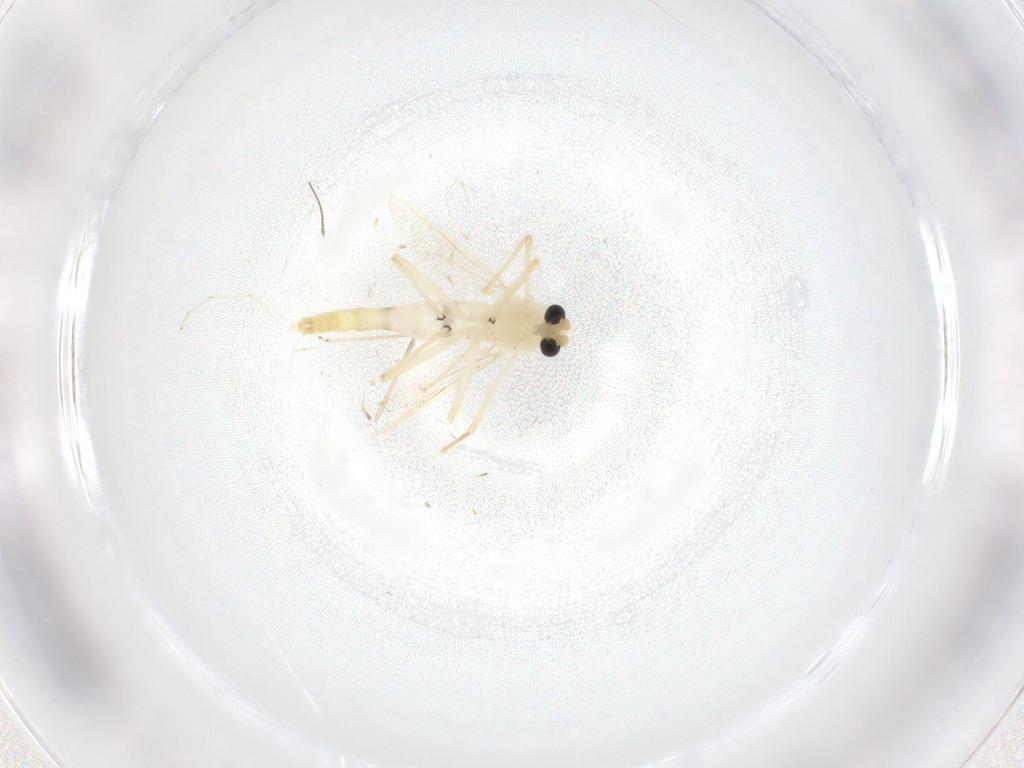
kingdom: Animalia
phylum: Arthropoda
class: Insecta
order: Diptera
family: Chironomidae
